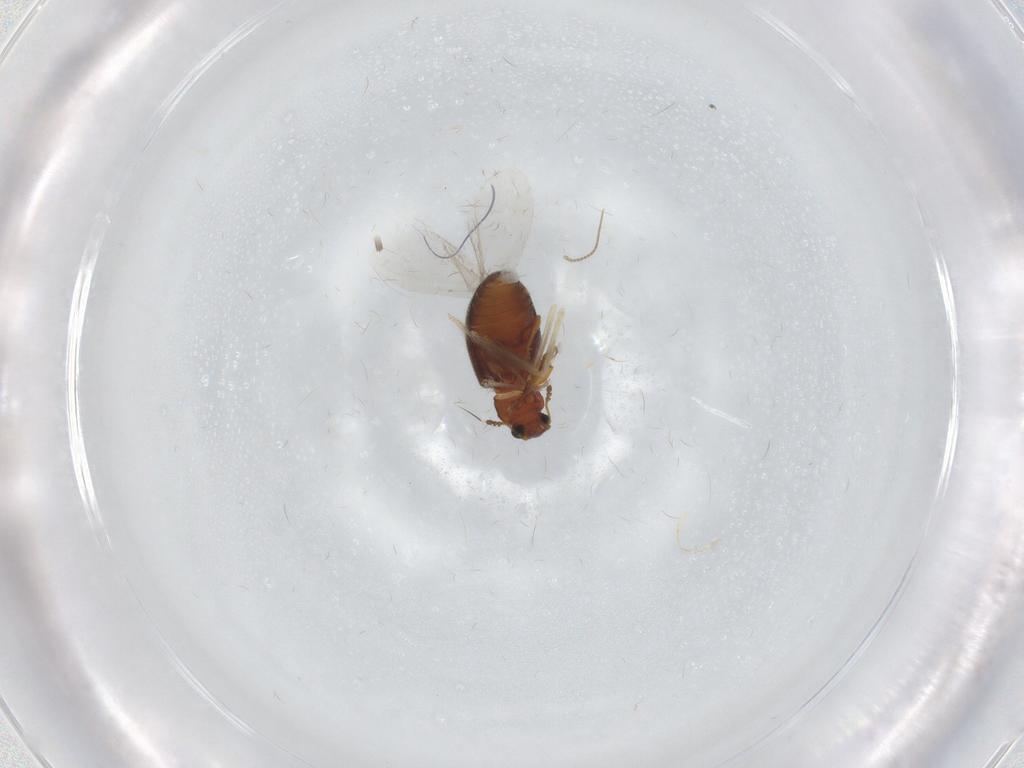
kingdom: Animalia
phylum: Arthropoda
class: Insecta
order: Coleoptera
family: Latridiidae
